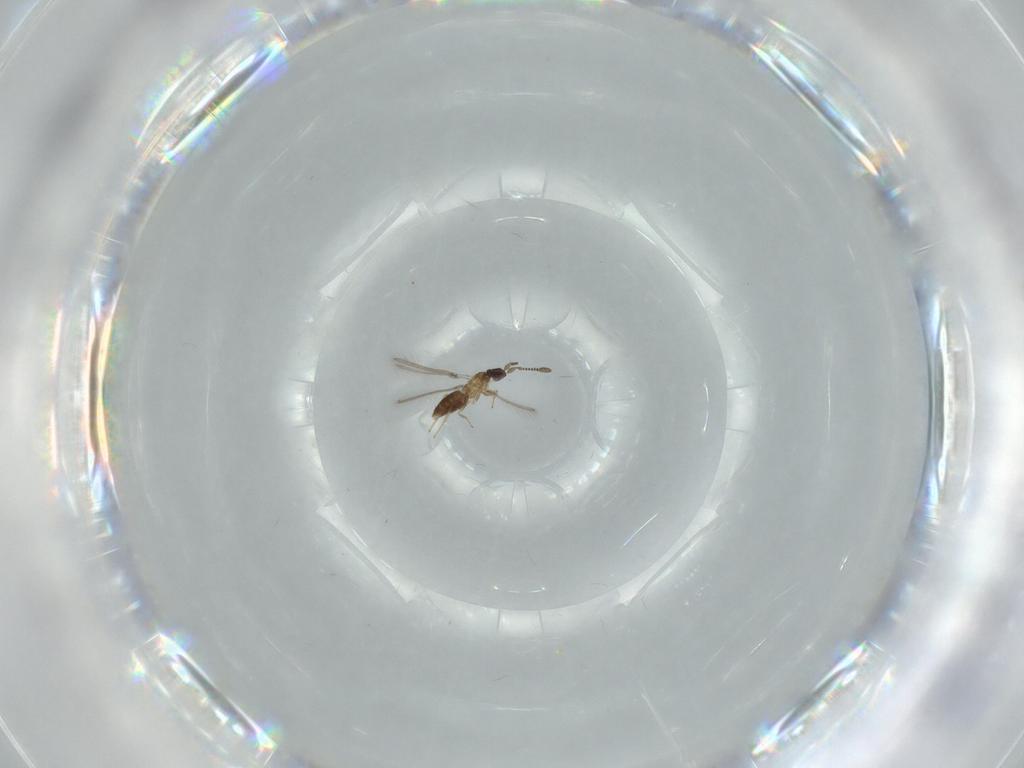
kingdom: Animalia
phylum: Arthropoda
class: Insecta
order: Hymenoptera
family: Mymaridae
